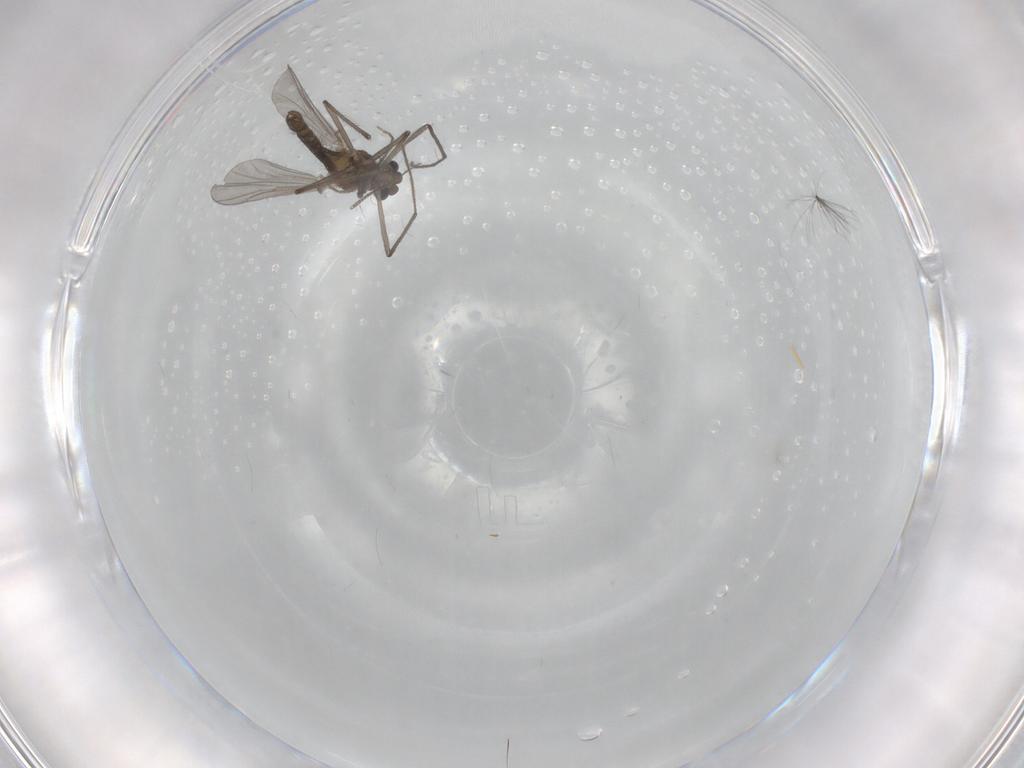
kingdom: Animalia
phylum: Arthropoda
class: Insecta
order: Diptera
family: Chironomidae
